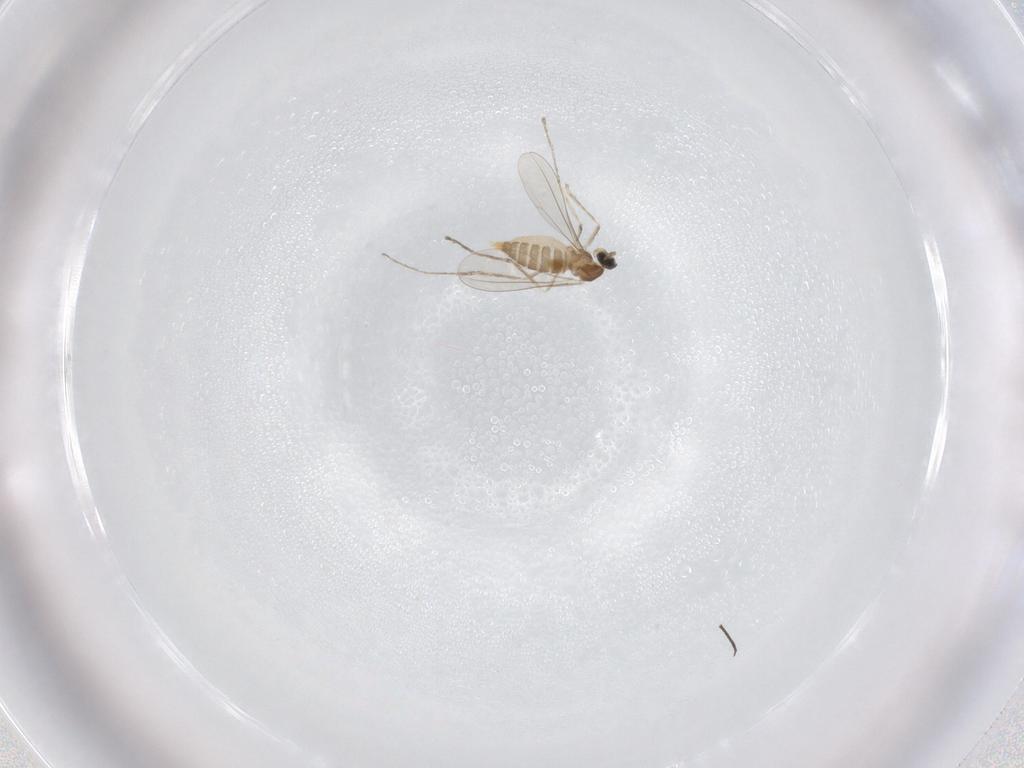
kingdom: Animalia
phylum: Arthropoda
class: Insecta
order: Diptera
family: Cecidomyiidae
